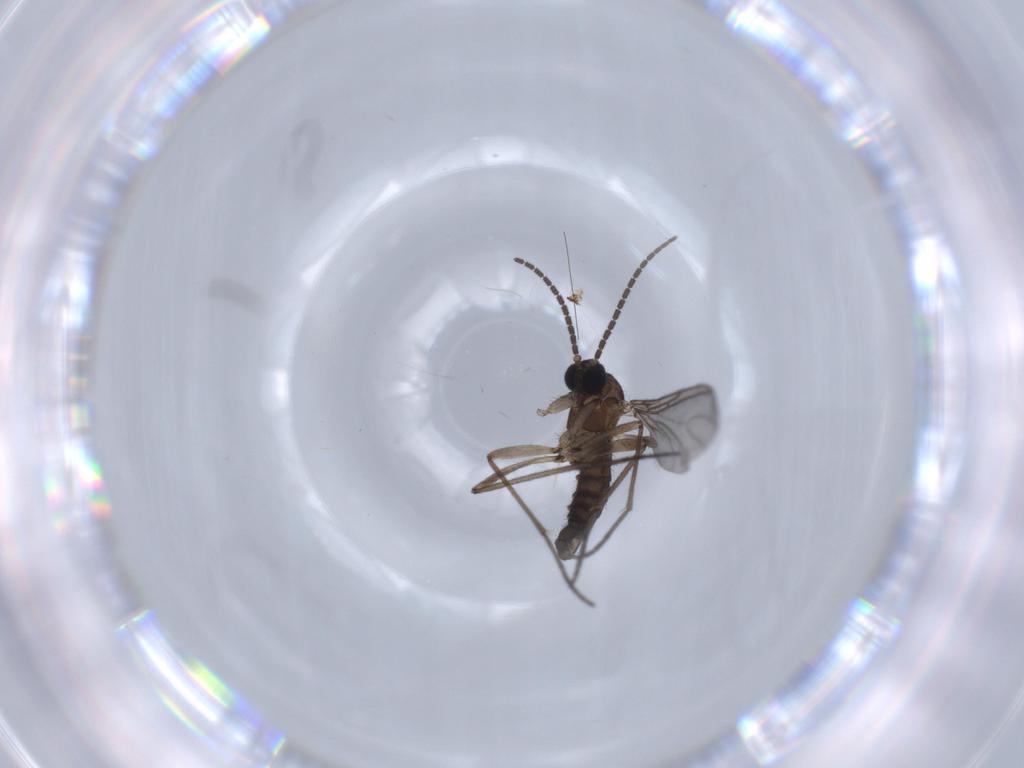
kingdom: Animalia
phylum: Arthropoda
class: Insecta
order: Diptera
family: Sciaridae
